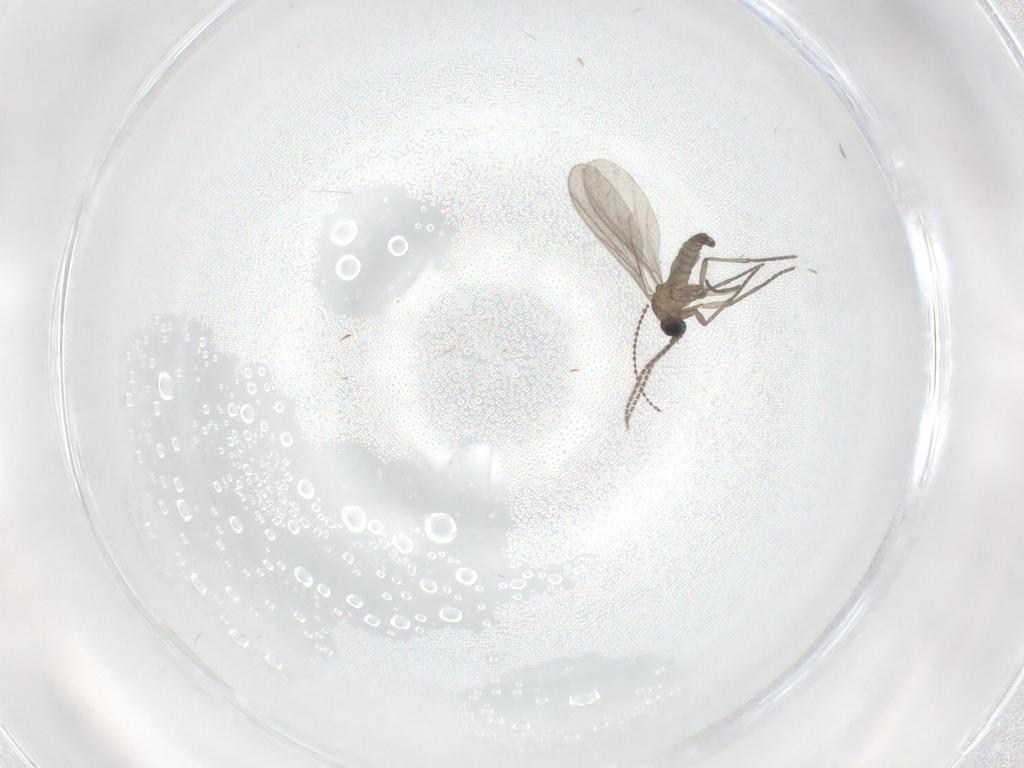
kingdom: Animalia
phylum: Arthropoda
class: Insecta
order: Diptera
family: Sciaridae
